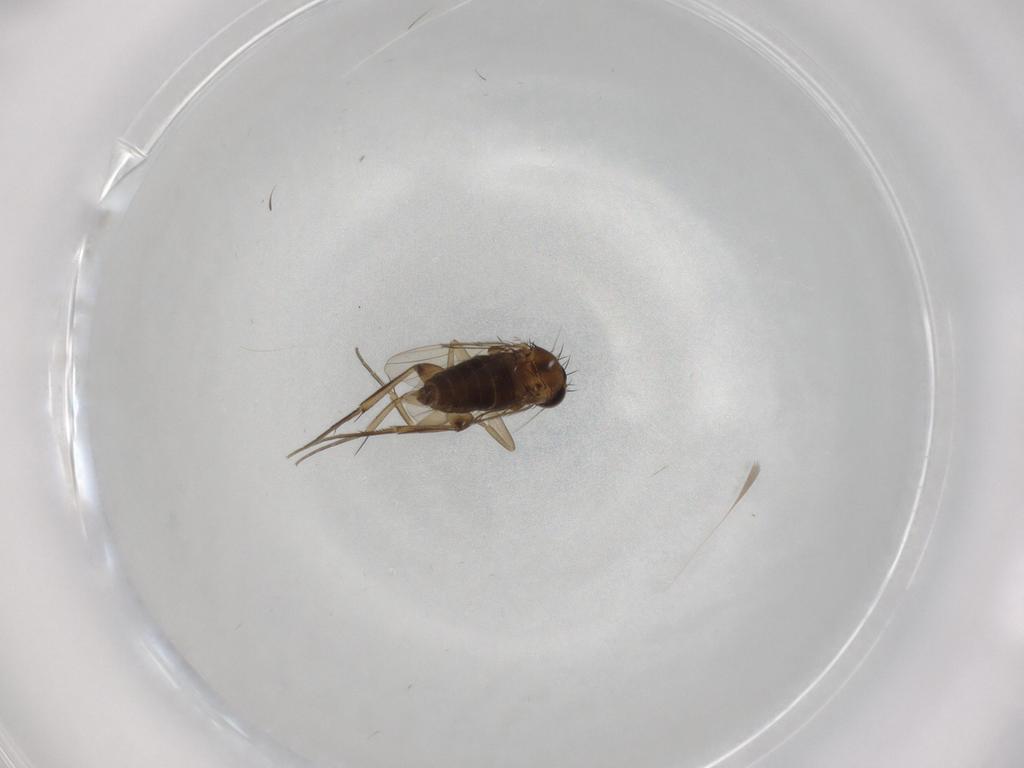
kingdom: Animalia
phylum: Arthropoda
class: Insecta
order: Diptera
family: Phoridae
